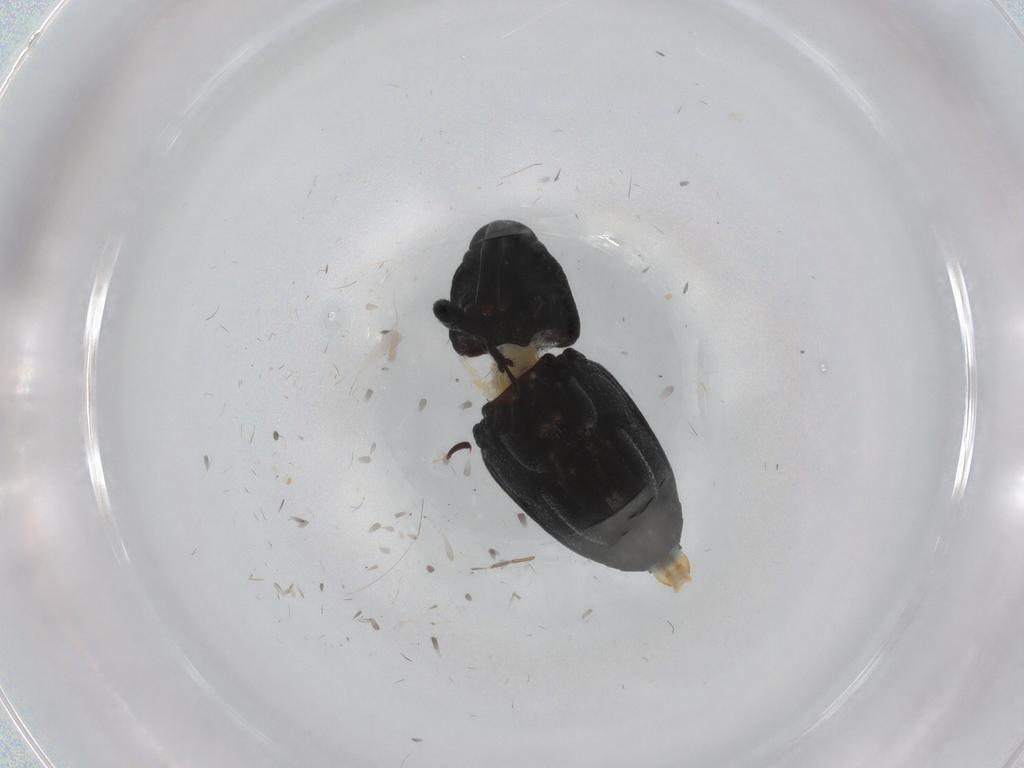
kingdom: Animalia
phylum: Arthropoda
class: Insecta
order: Coleoptera
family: Curculionidae
